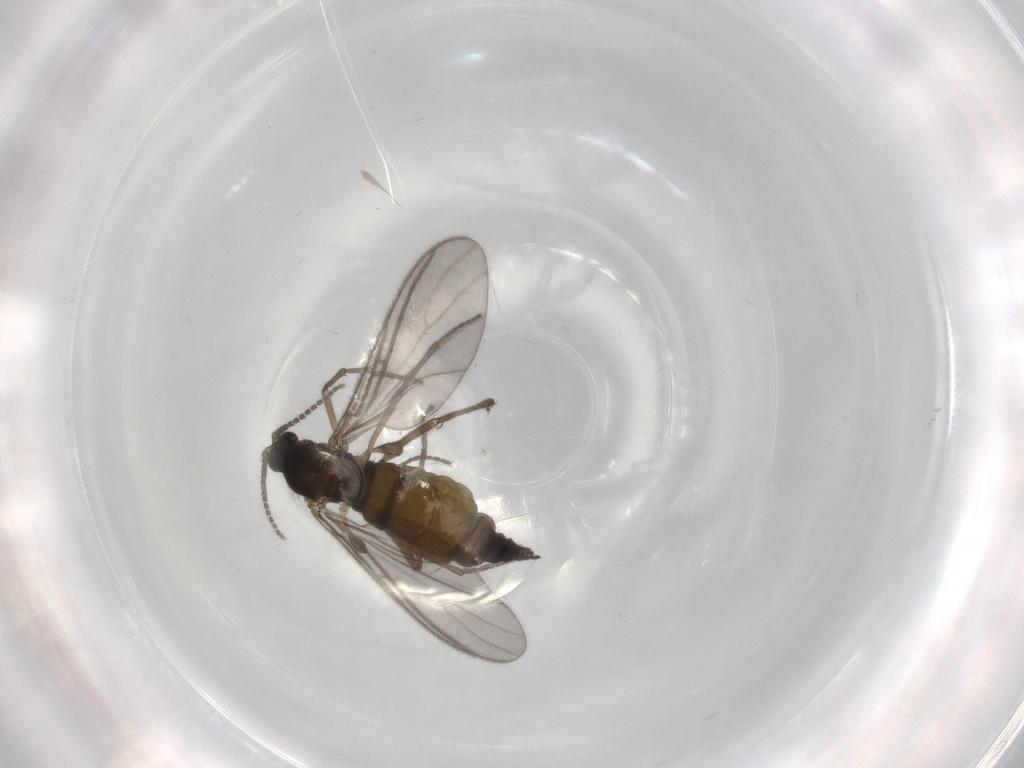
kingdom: Animalia
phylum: Arthropoda
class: Insecta
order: Diptera
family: Sciaridae
